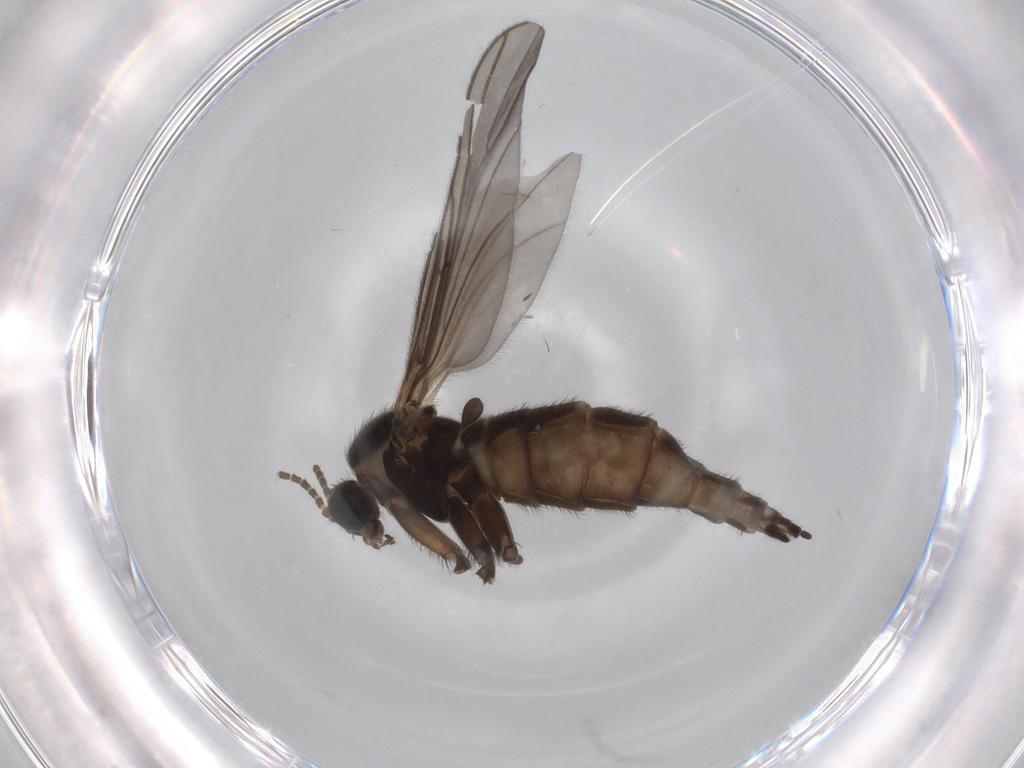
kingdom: Animalia
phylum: Arthropoda
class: Insecta
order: Diptera
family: Sciaridae
